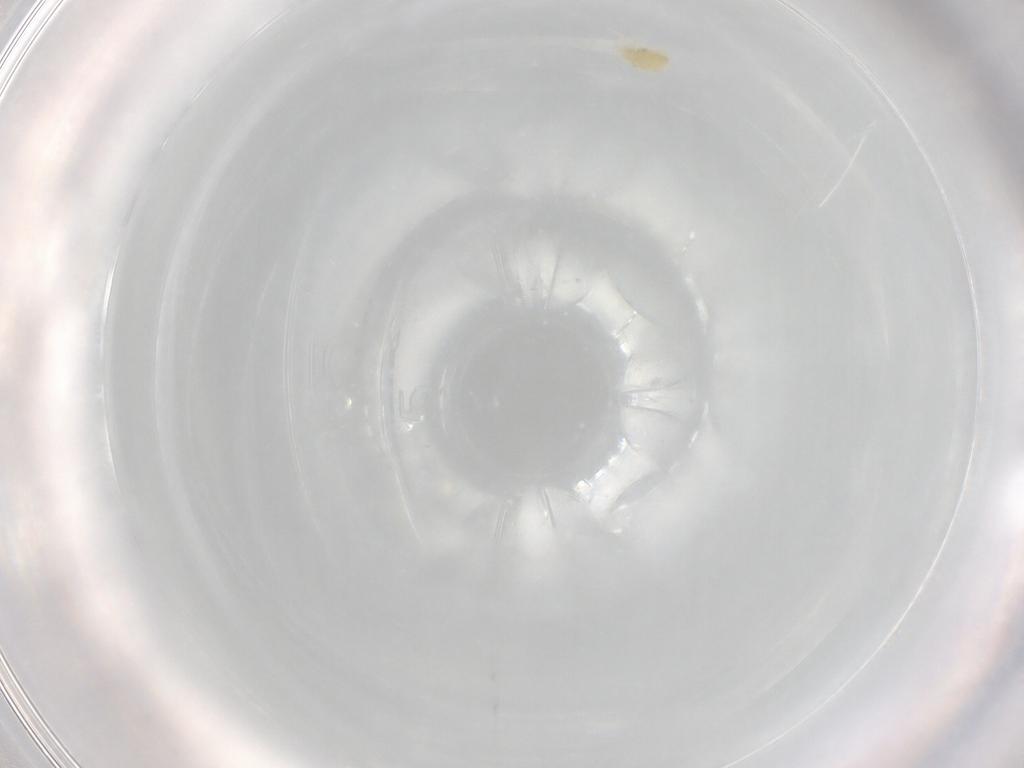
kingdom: Animalia
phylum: Arthropoda
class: Arachnida
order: Trombidiformes
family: Eupodidae
